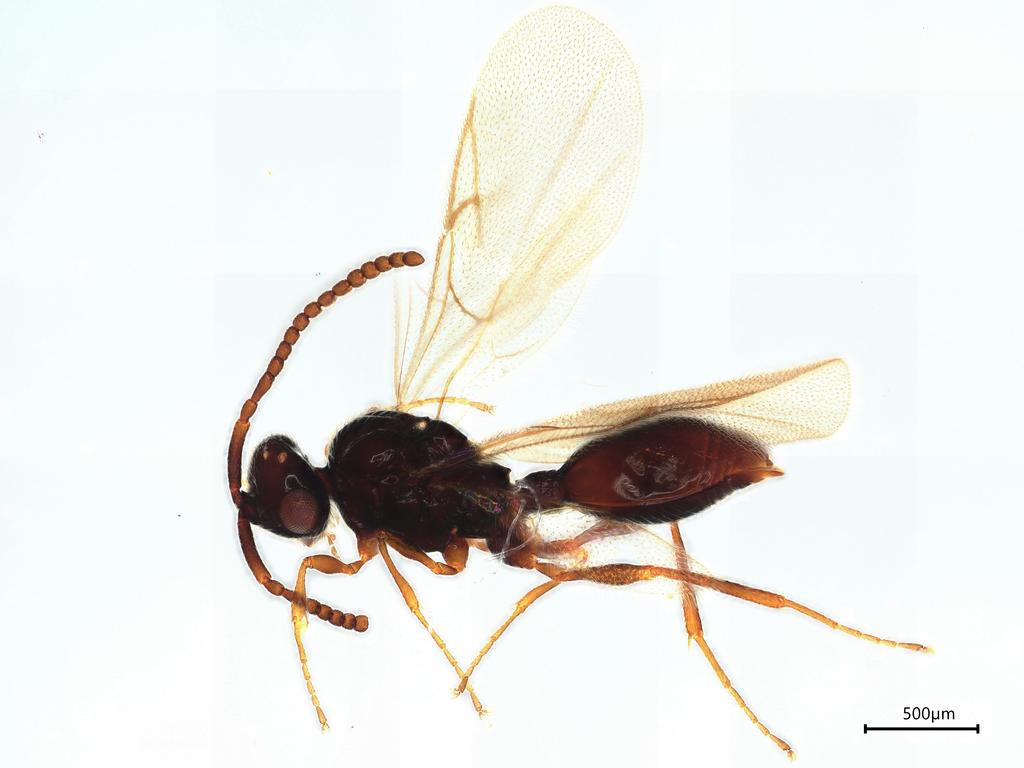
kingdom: Animalia
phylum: Arthropoda
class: Insecta
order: Hymenoptera
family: Diapriidae
